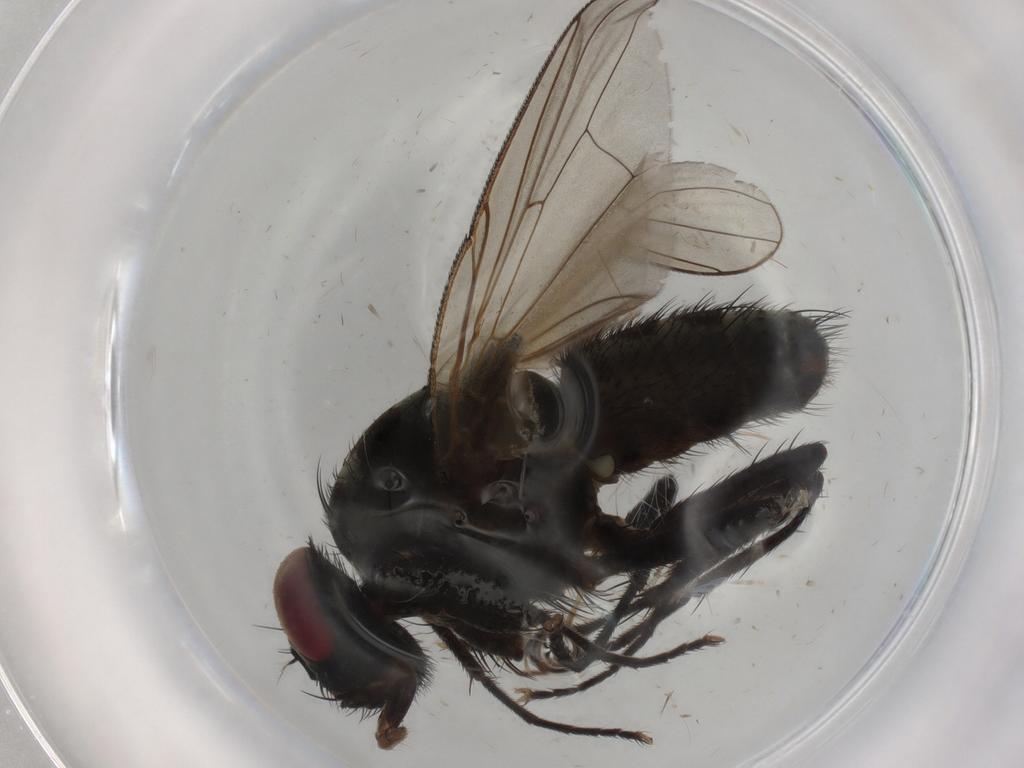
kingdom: Animalia
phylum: Arthropoda
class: Insecta
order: Diptera
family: Muscidae
